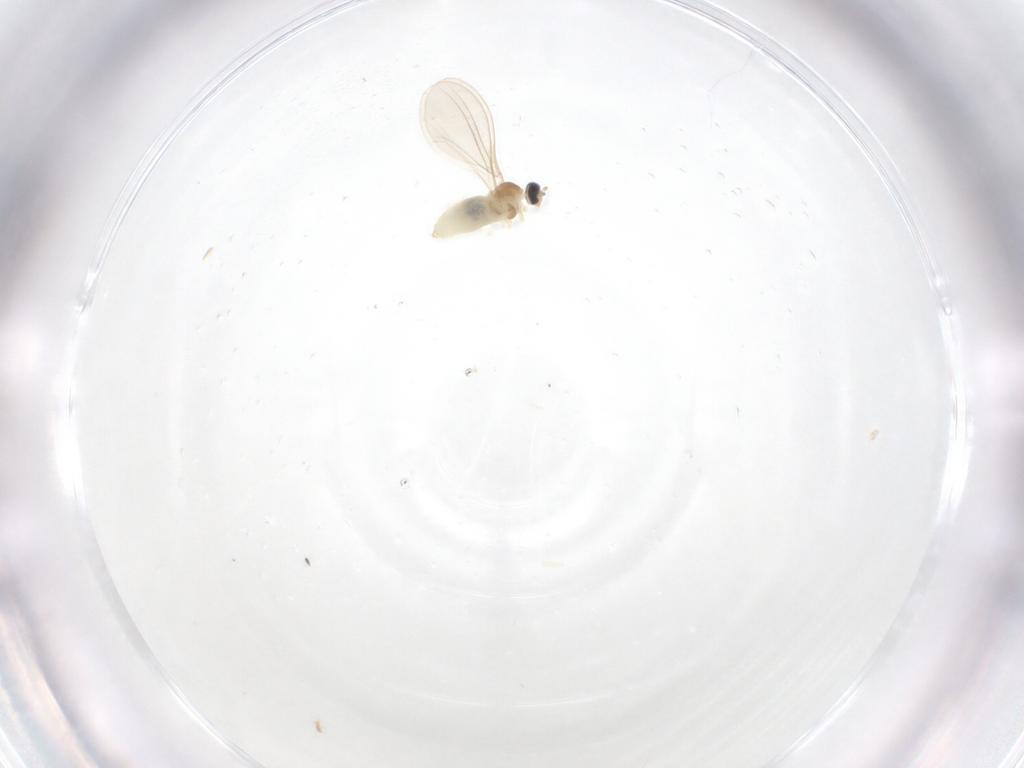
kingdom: Animalia
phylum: Arthropoda
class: Insecta
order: Diptera
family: Cecidomyiidae
